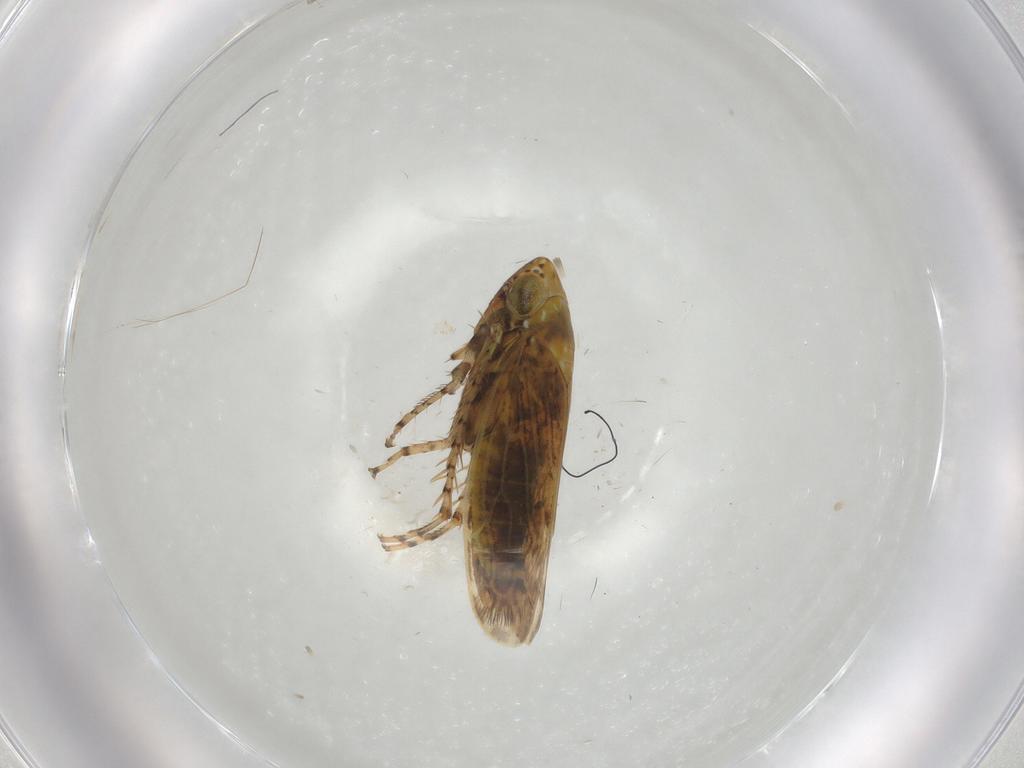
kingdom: Animalia
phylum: Arthropoda
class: Insecta
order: Hemiptera
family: Cicadellidae
